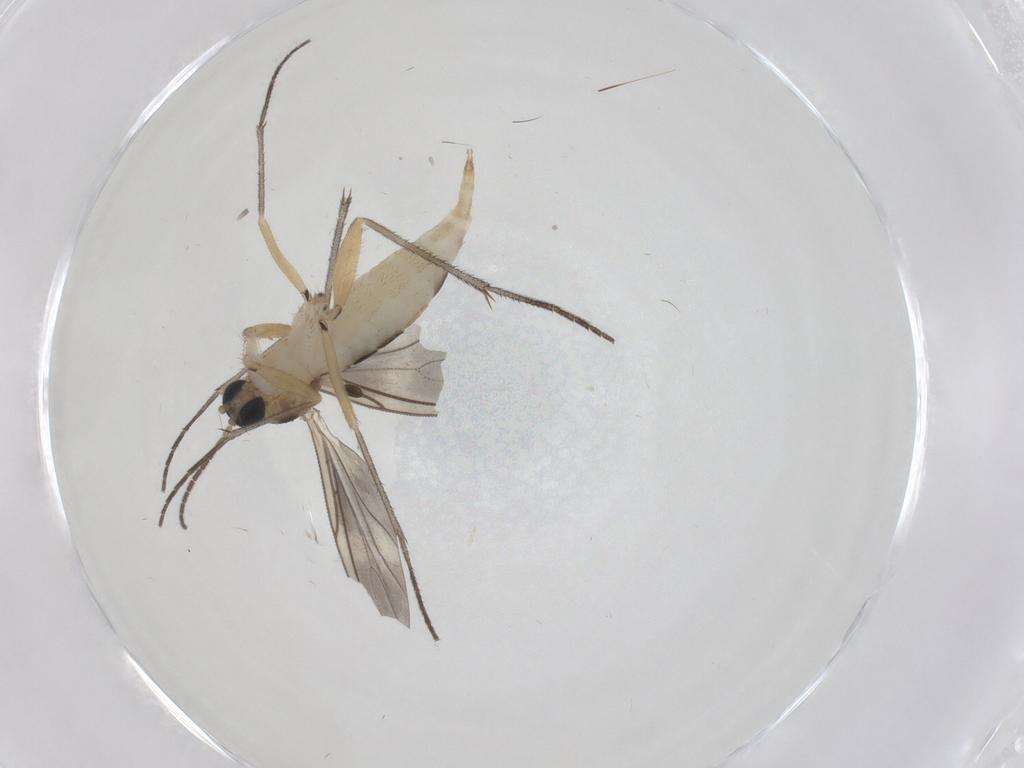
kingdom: Animalia
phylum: Arthropoda
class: Insecta
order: Diptera
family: Sciaridae
